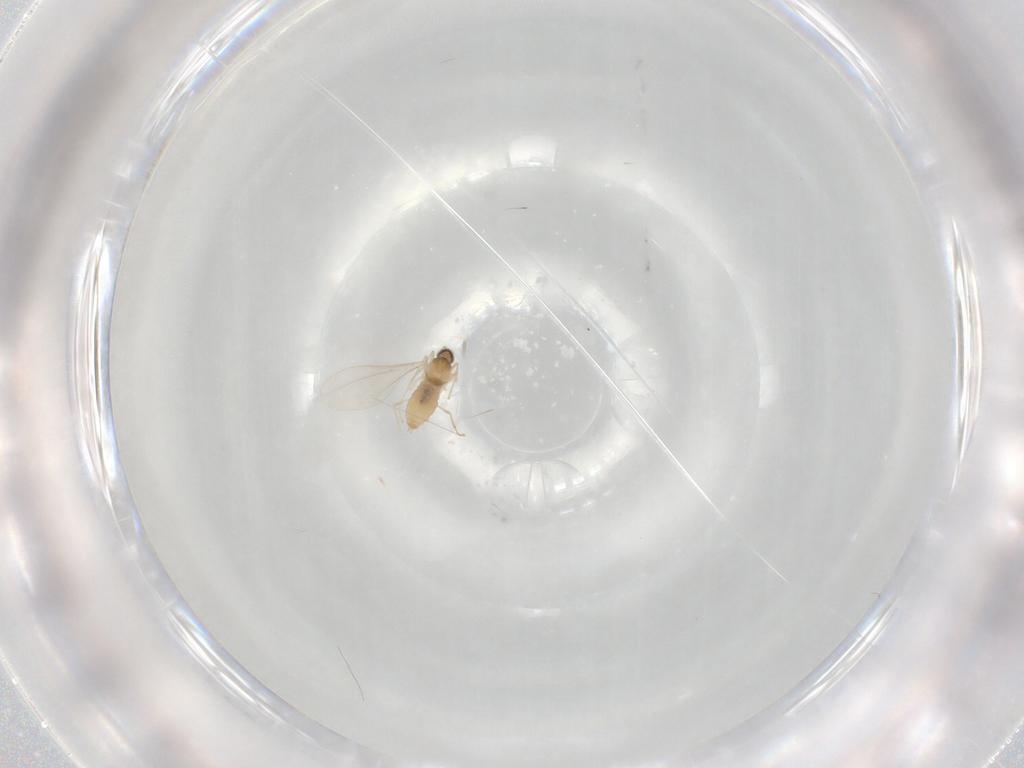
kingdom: Animalia
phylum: Arthropoda
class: Insecta
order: Diptera
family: Cecidomyiidae
